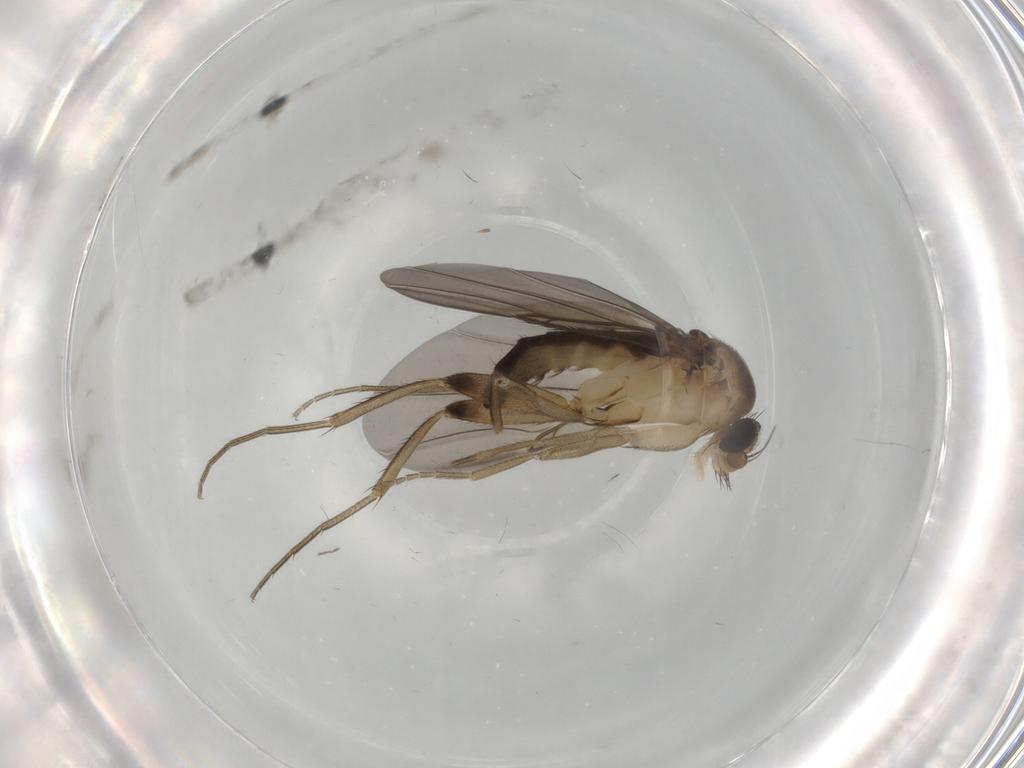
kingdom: Animalia
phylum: Arthropoda
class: Insecta
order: Diptera
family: Phoridae
